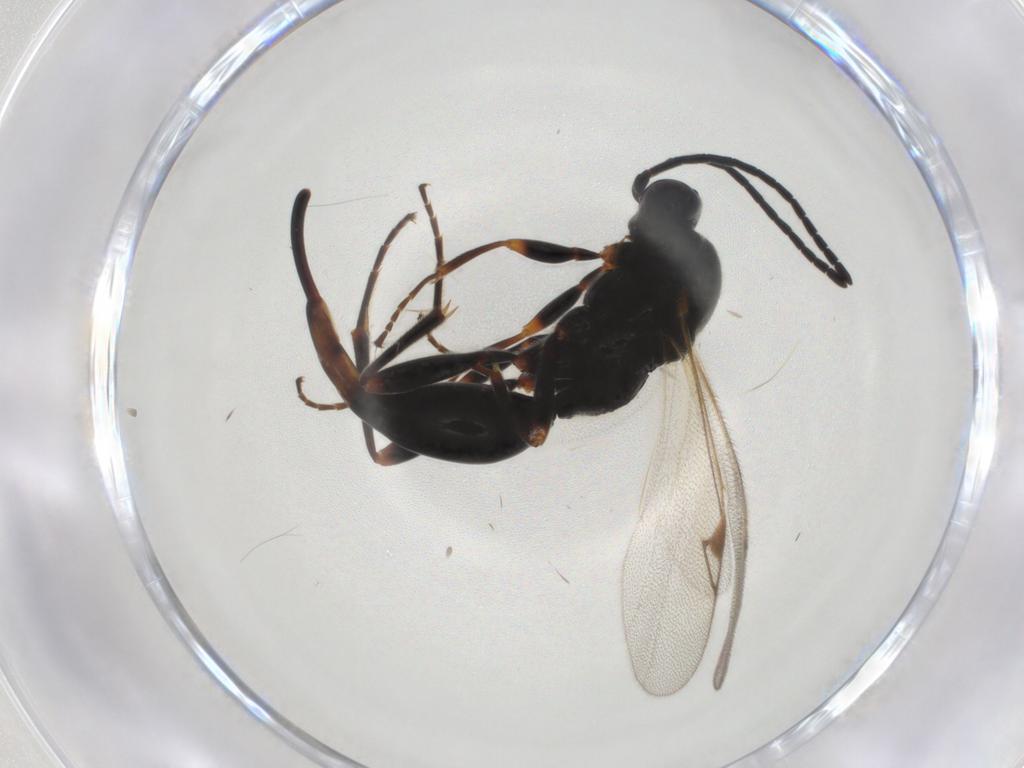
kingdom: Animalia
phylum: Arthropoda
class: Insecta
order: Hymenoptera
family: Proctotrupidae
